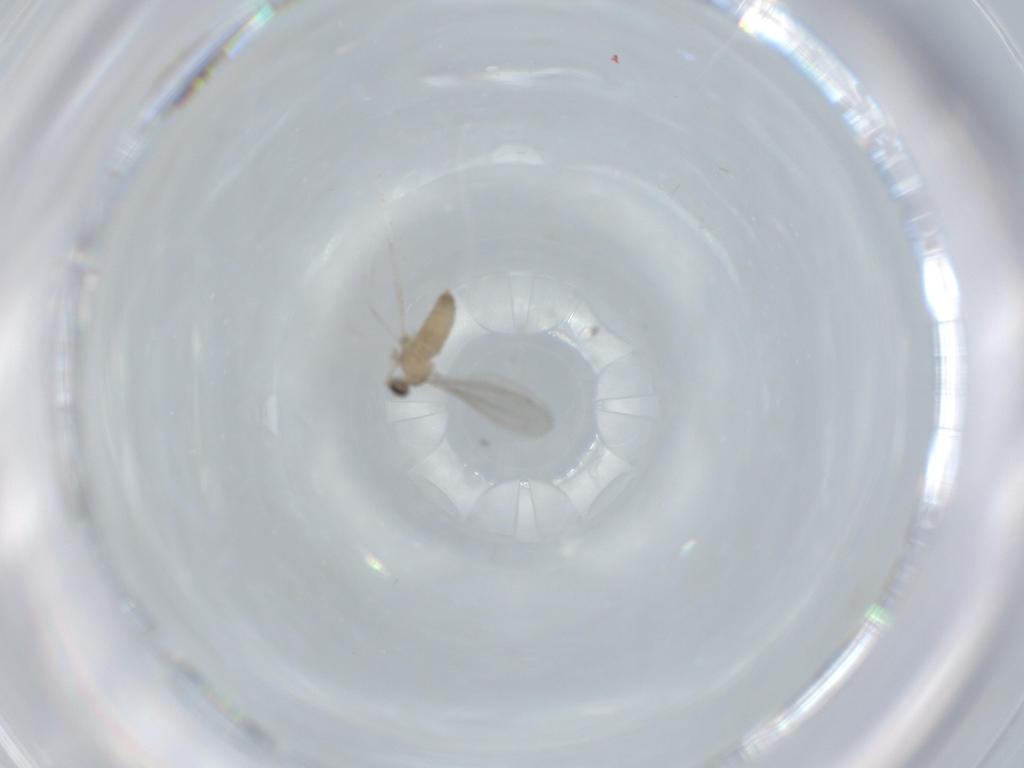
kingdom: Animalia
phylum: Arthropoda
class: Insecta
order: Diptera
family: Cecidomyiidae
